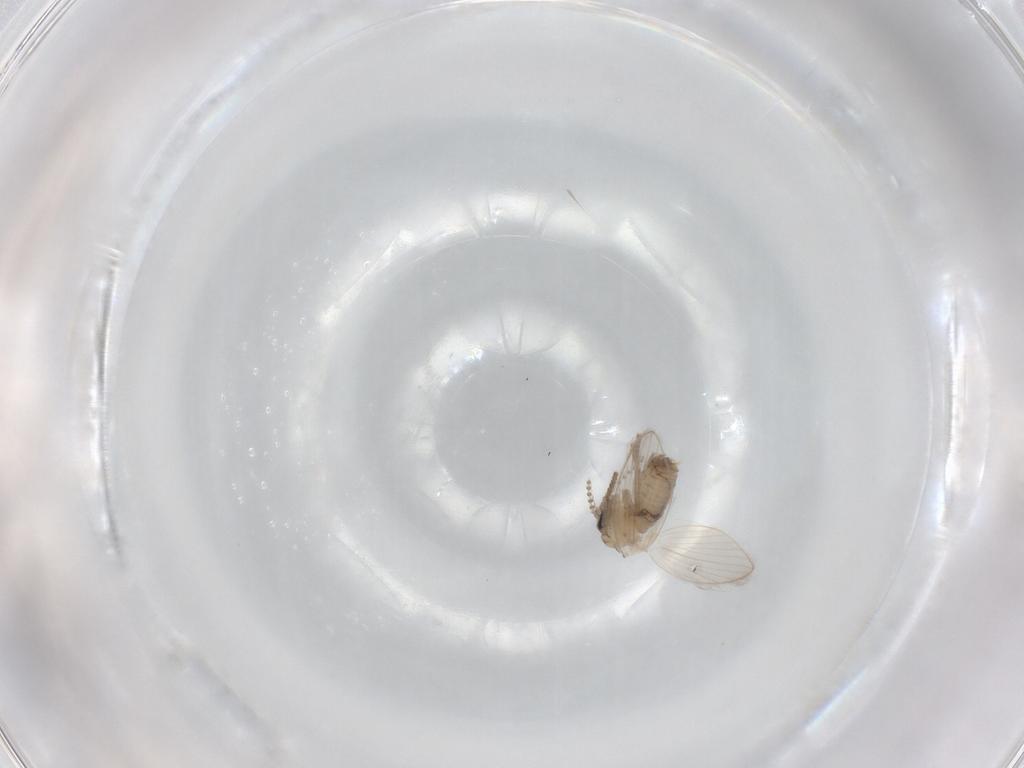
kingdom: Animalia
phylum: Arthropoda
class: Insecta
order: Diptera
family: Psychodidae
